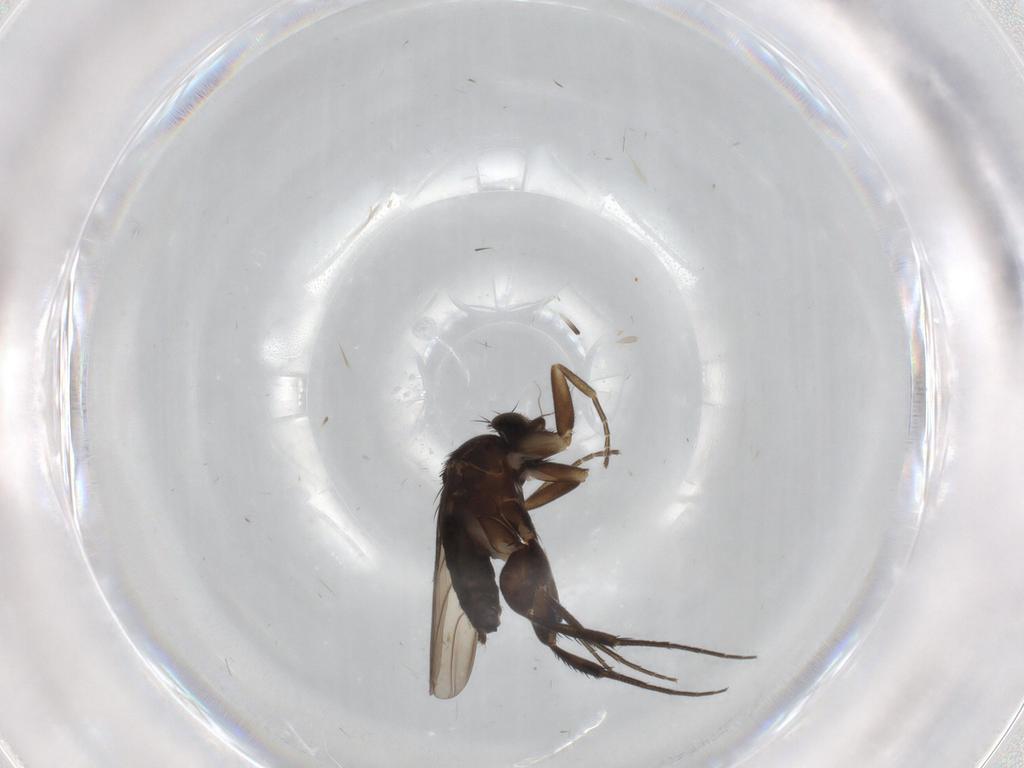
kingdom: Animalia
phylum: Arthropoda
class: Insecta
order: Diptera
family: Phoridae
